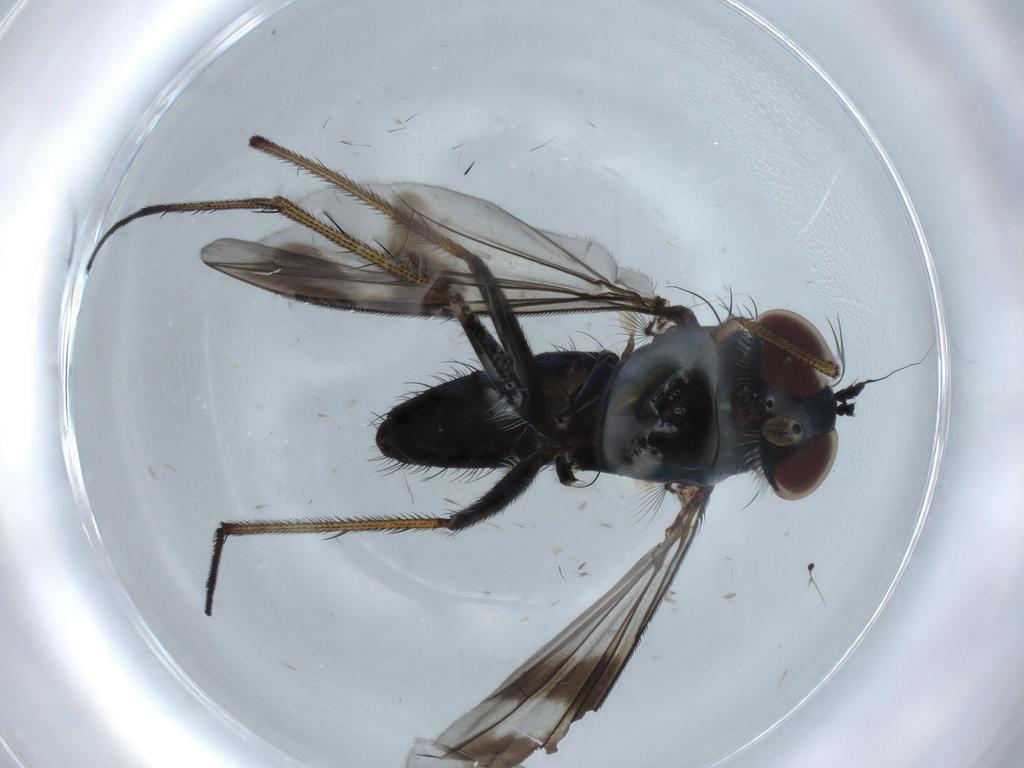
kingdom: Animalia
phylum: Arthropoda
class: Insecta
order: Diptera
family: Dolichopodidae
